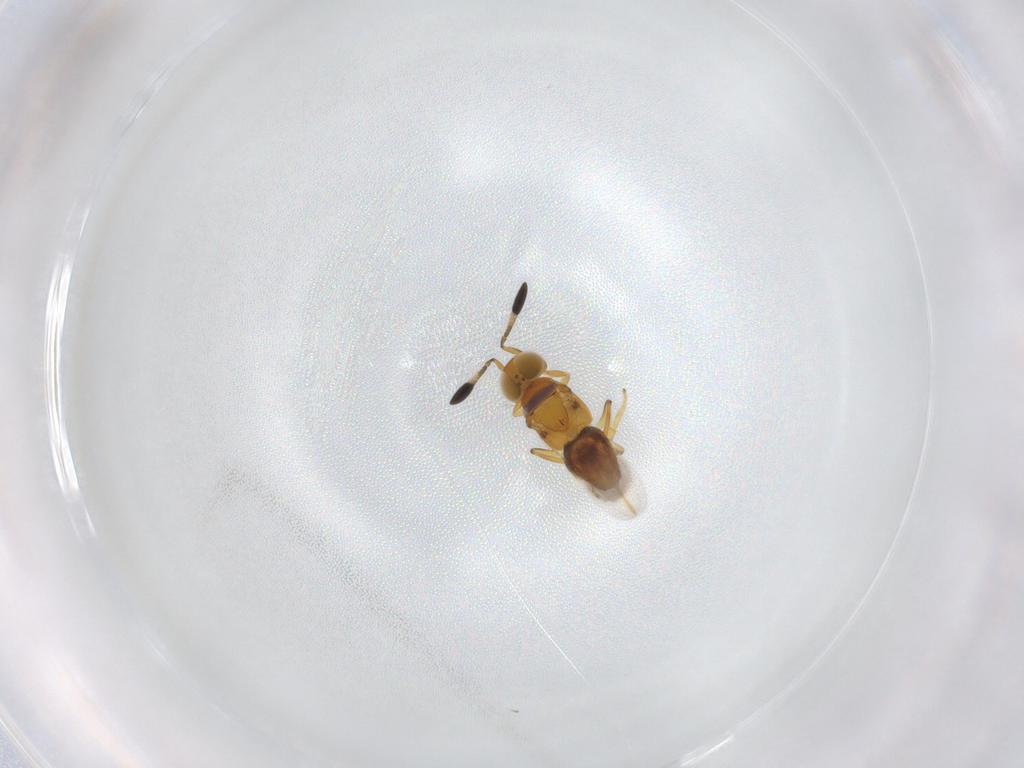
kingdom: Animalia
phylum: Arthropoda
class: Insecta
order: Hymenoptera
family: Encyrtidae
